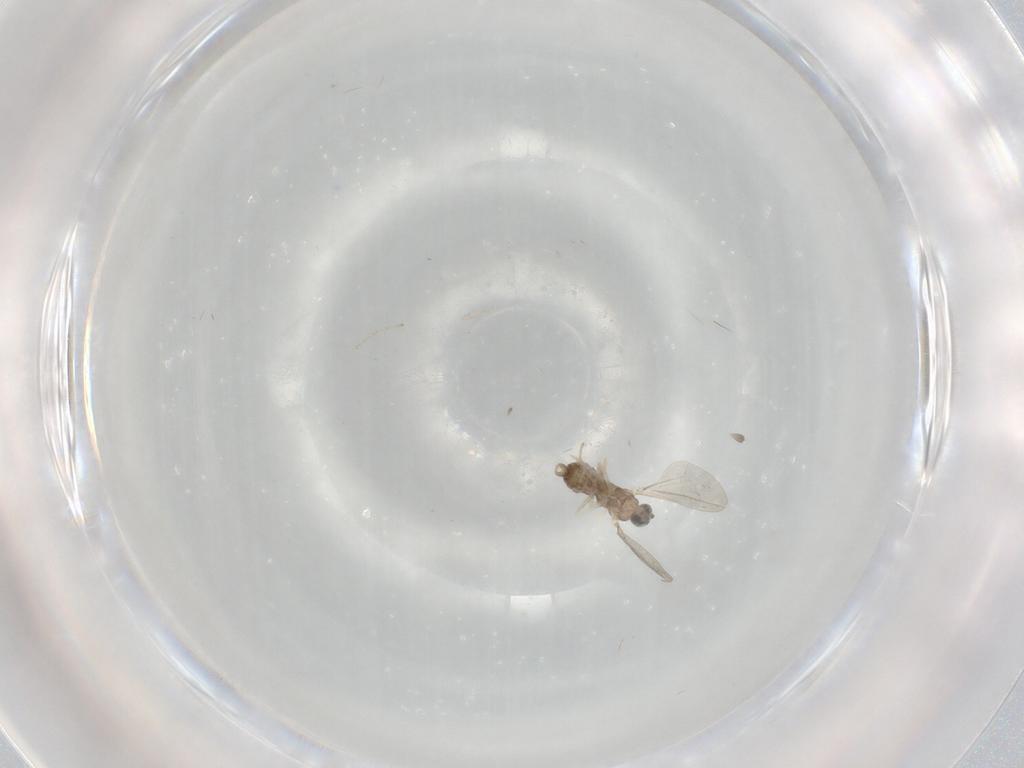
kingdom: Animalia
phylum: Arthropoda
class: Insecta
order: Diptera
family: Cecidomyiidae
